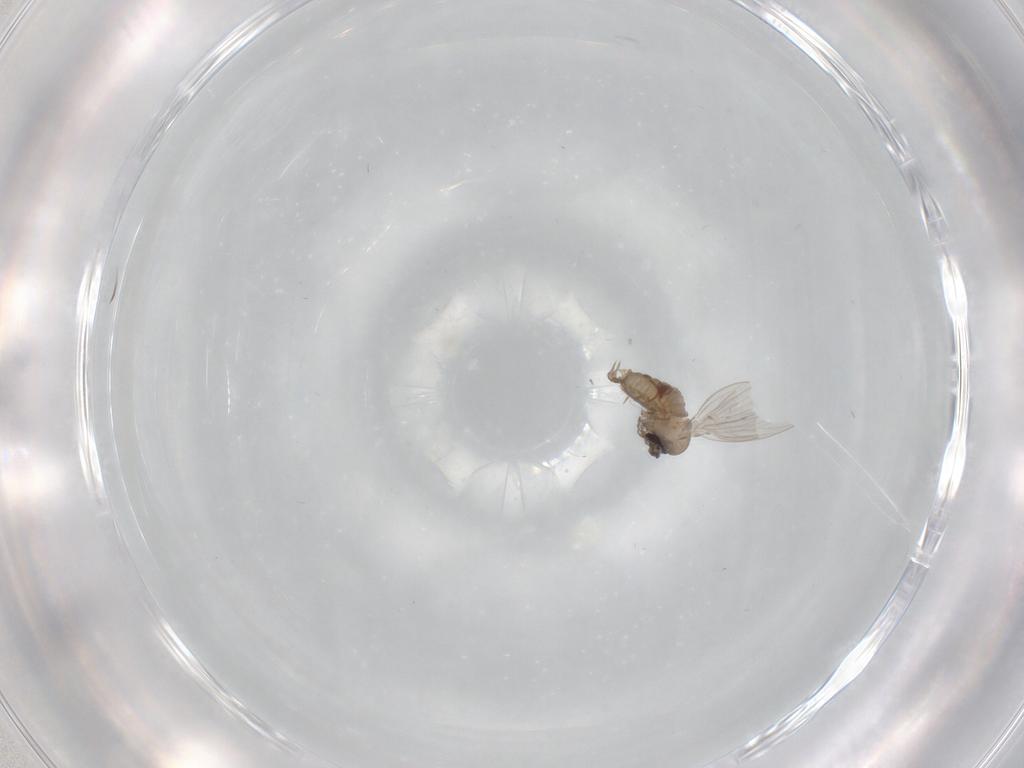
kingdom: Animalia
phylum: Arthropoda
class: Insecta
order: Diptera
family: Psychodidae
